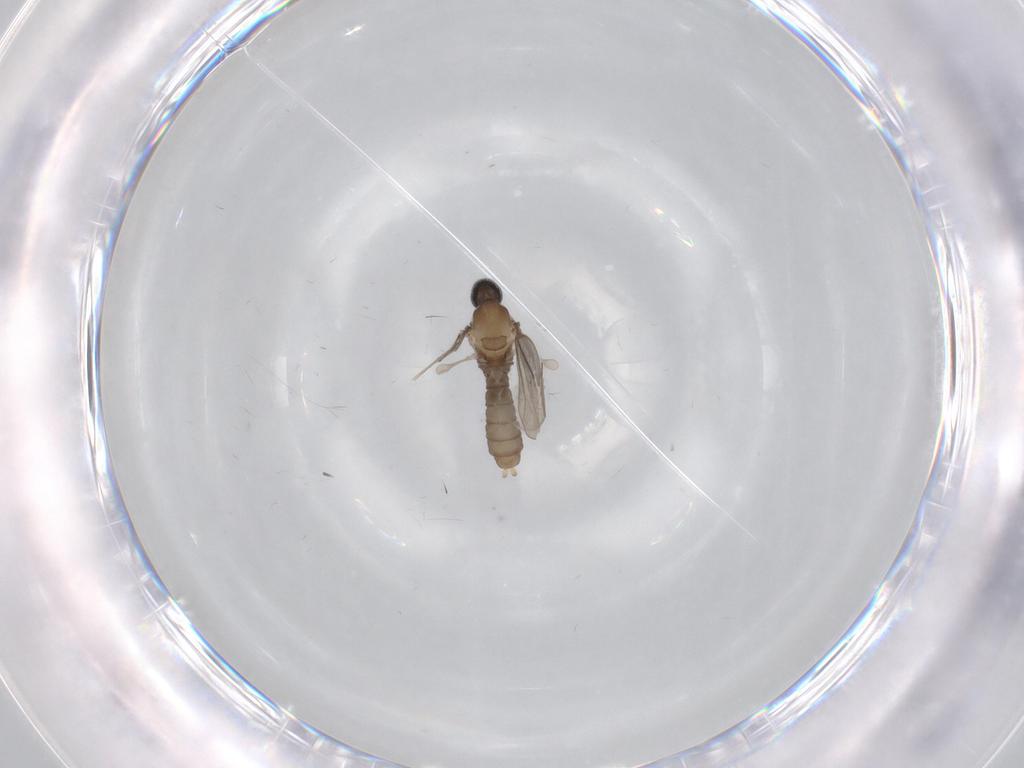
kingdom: Animalia
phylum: Arthropoda
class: Insecta
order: Diptera
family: Cecidomyiidae
